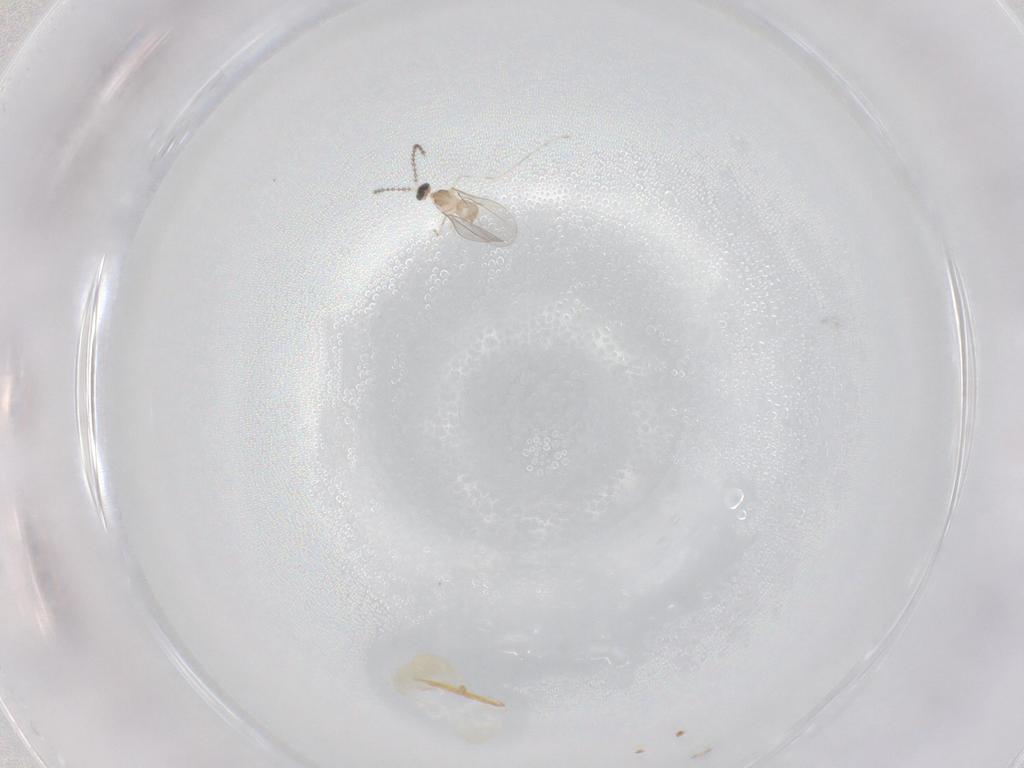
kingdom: Animalia
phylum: Arthropoda
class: Insecta
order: Diptera
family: Cecidomyiidae
